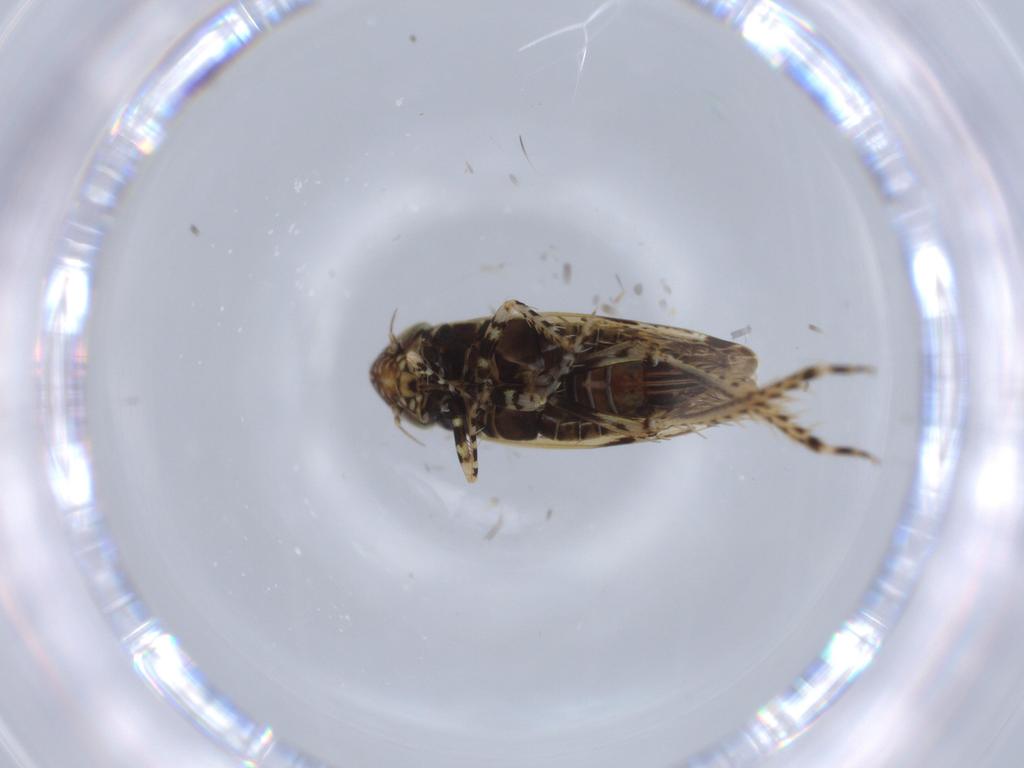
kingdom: Animalia
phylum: Arthropoda
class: Insecta
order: Hemiptera
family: Cicadellidae
